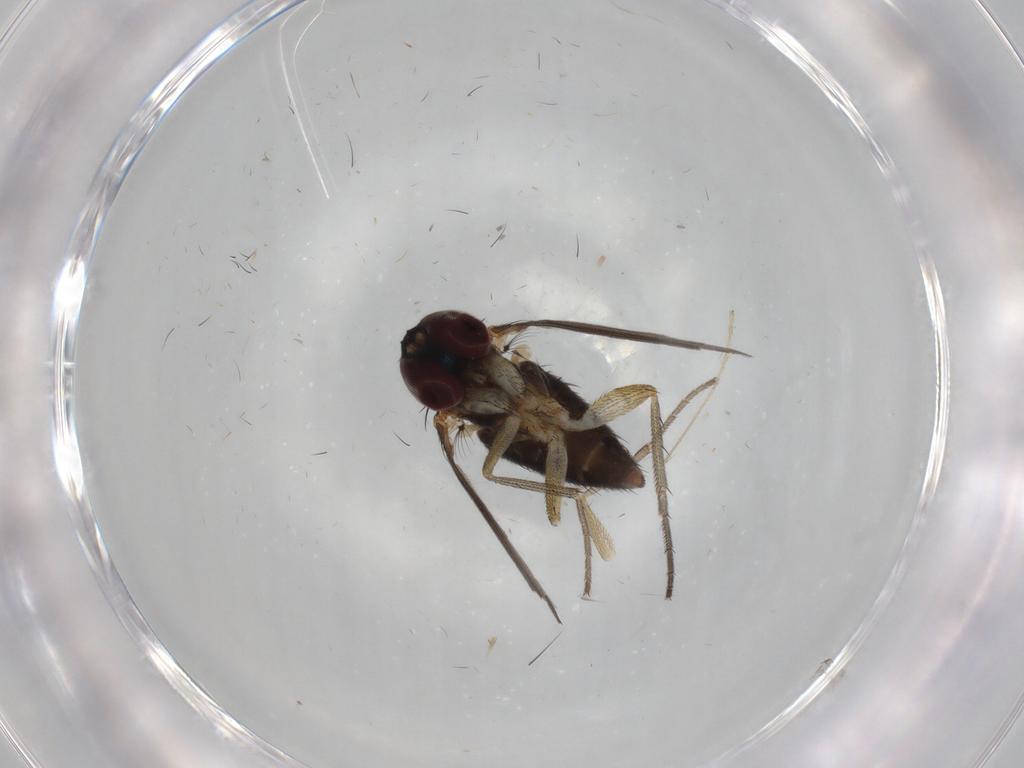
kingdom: Animalia
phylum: Arthropoda
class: Insecta
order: Diptera
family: Dolichopodidae
